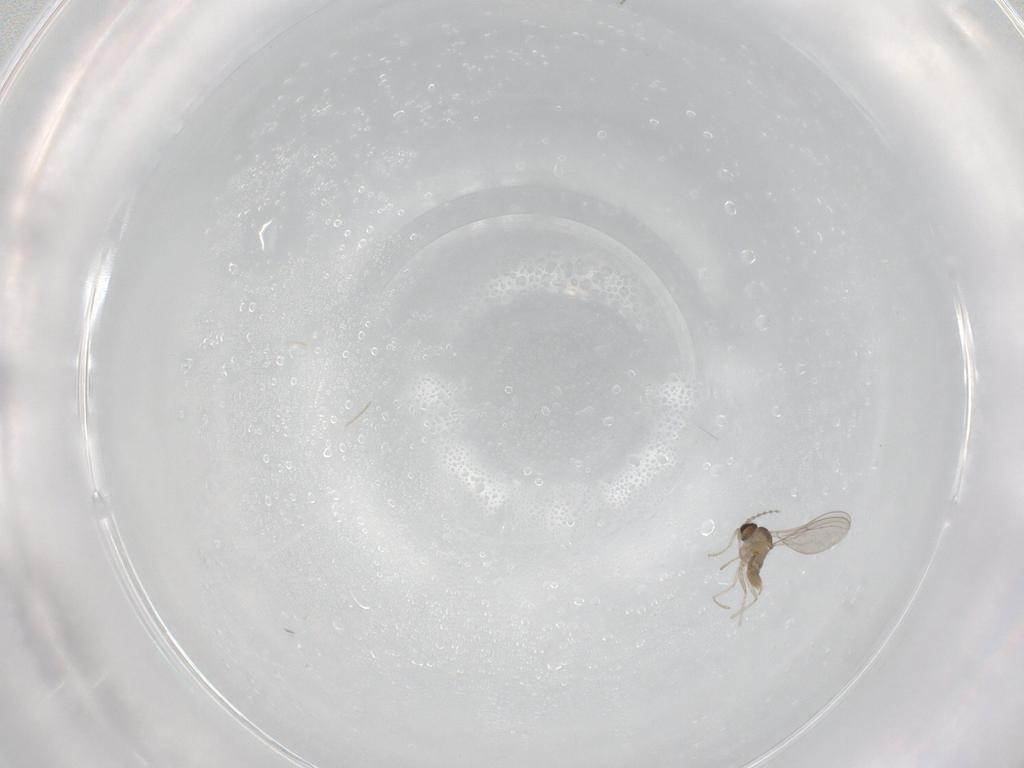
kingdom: Animalia
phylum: Arthropoda
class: Insecta
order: Diptera
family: Cecidomyiidae
